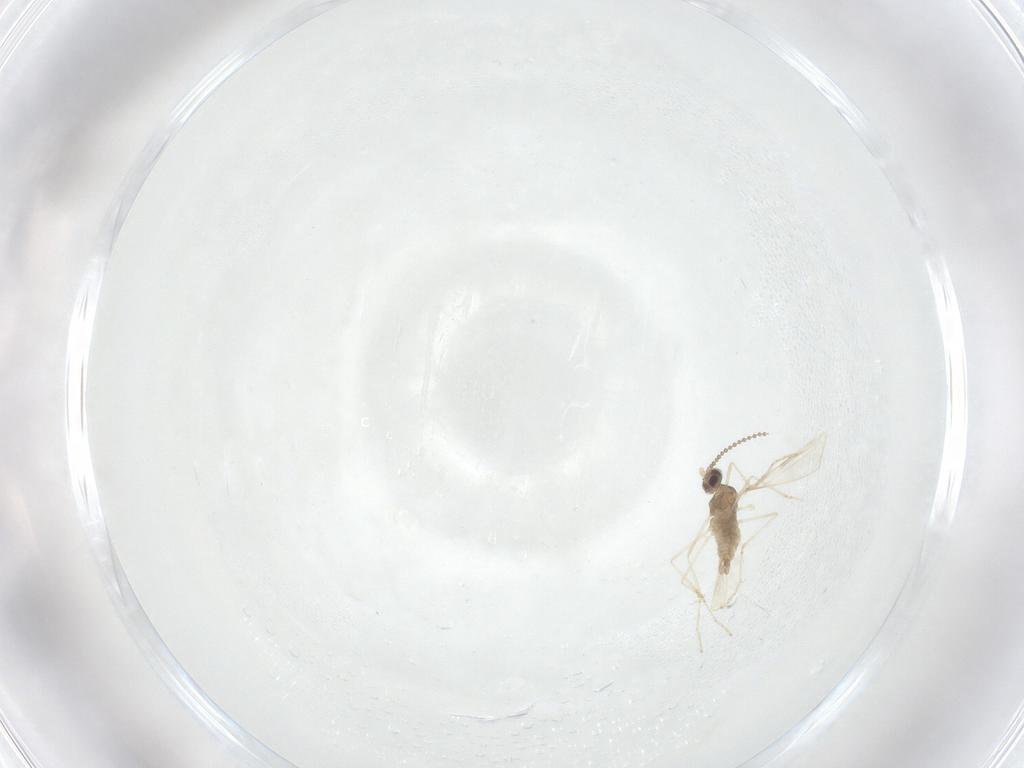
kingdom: Animalia
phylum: Arthropoda
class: Insecta
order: Diptera
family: Cecidomyiidae
